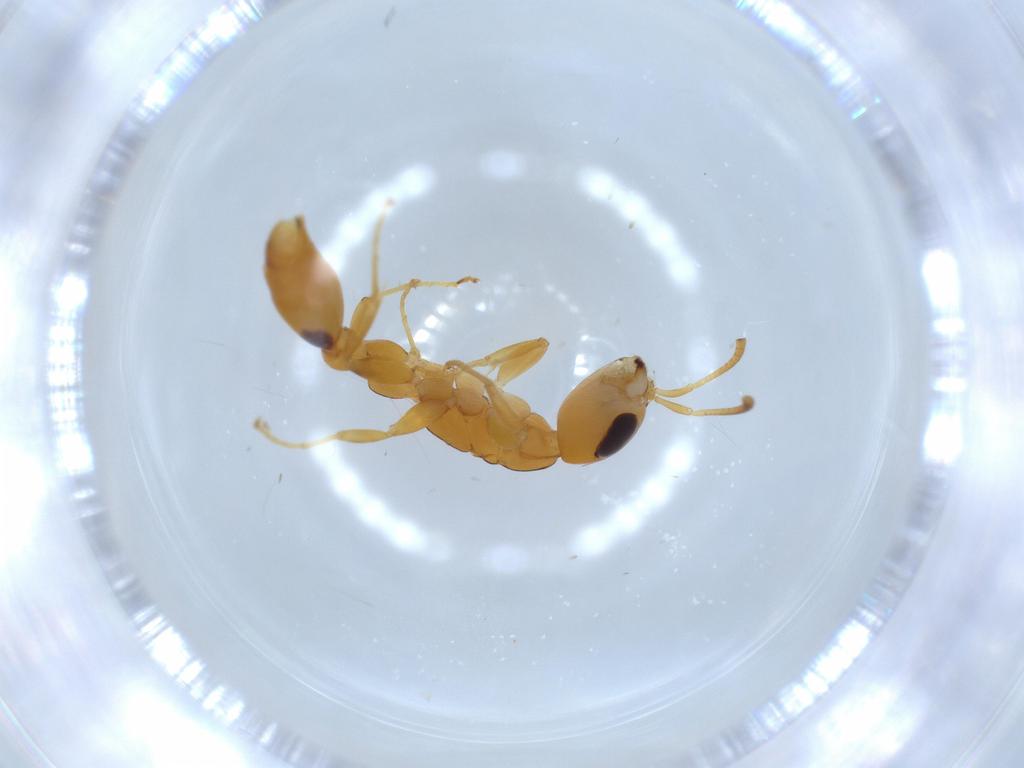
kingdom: Animalia
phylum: Arthropoda
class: Insecta
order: Hymenoptera
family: Formicidae
